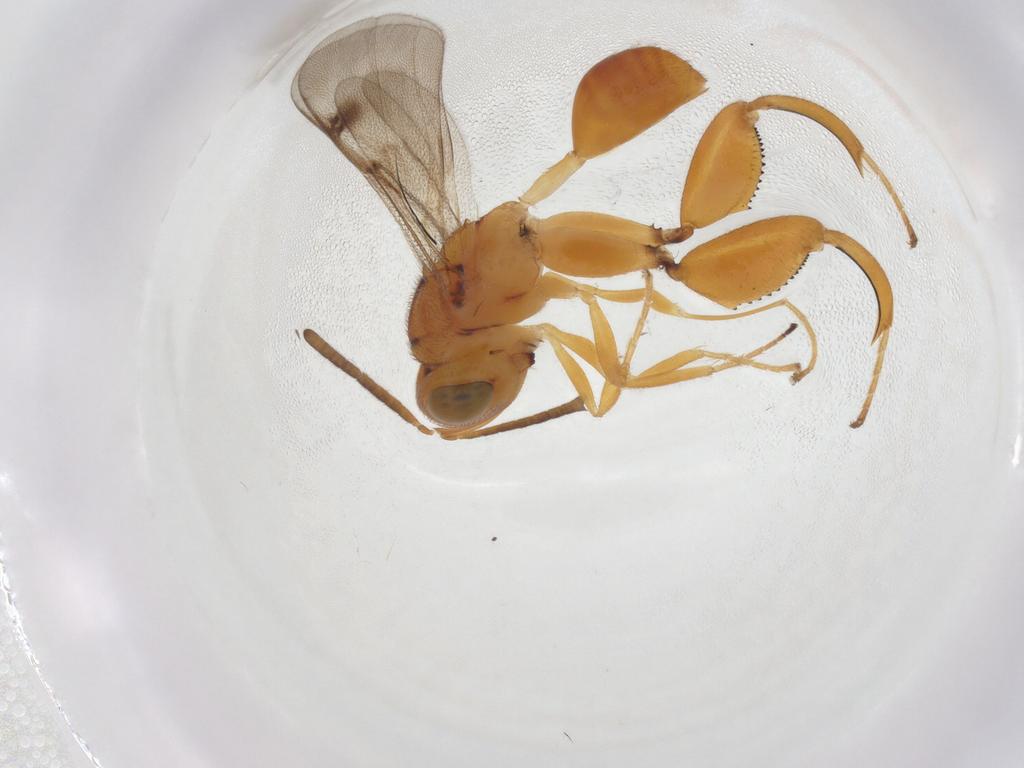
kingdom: Animalia
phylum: Arthropoda
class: Insecta
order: Hymenoptera
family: Chalcididae
